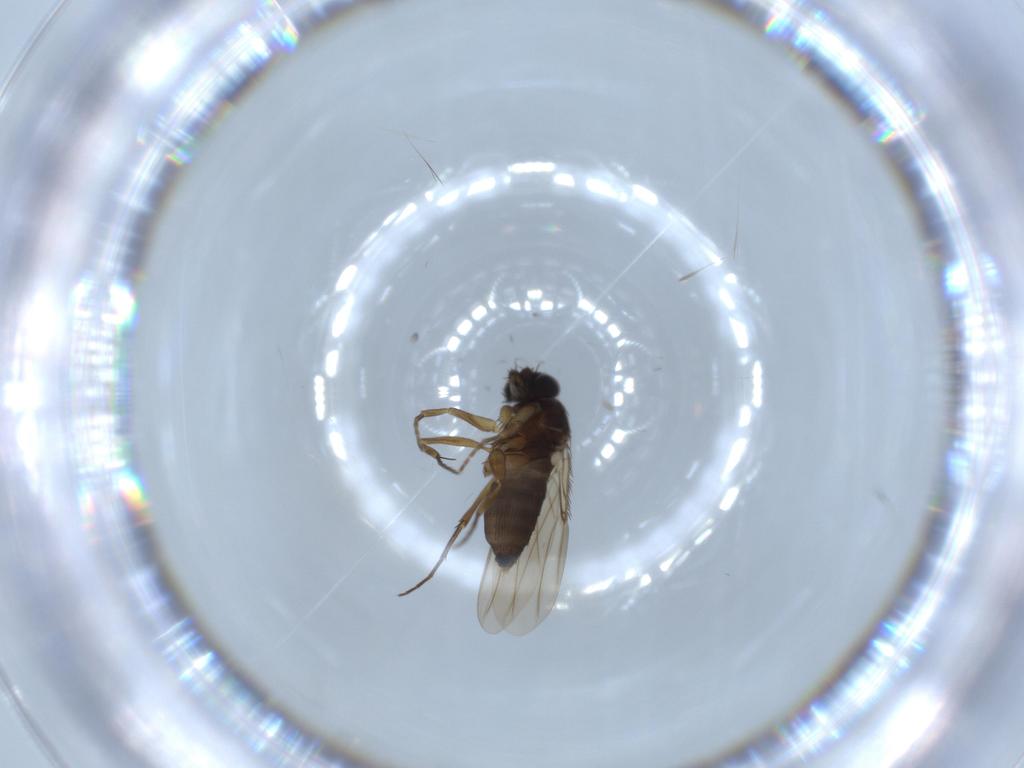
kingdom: Animalia
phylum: Arthropoda
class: Insecta
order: Diptera
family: Phoridae
